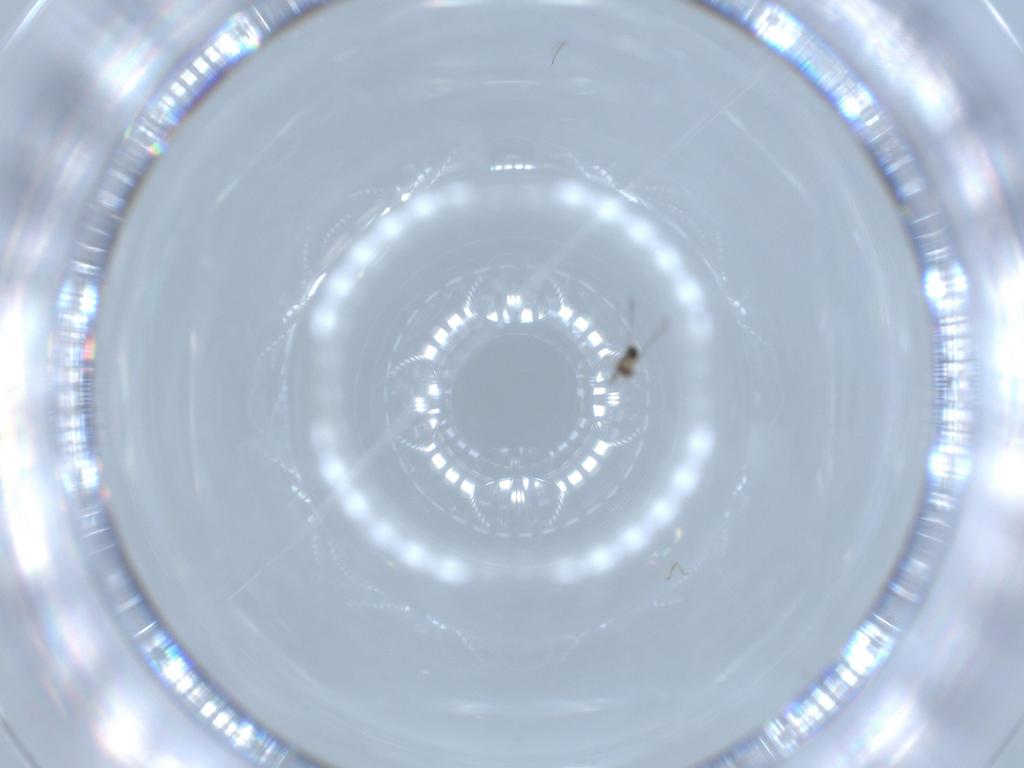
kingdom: Animalia
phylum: Arthropoda
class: Insecta
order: Hymenoptera
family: Mymaridae
